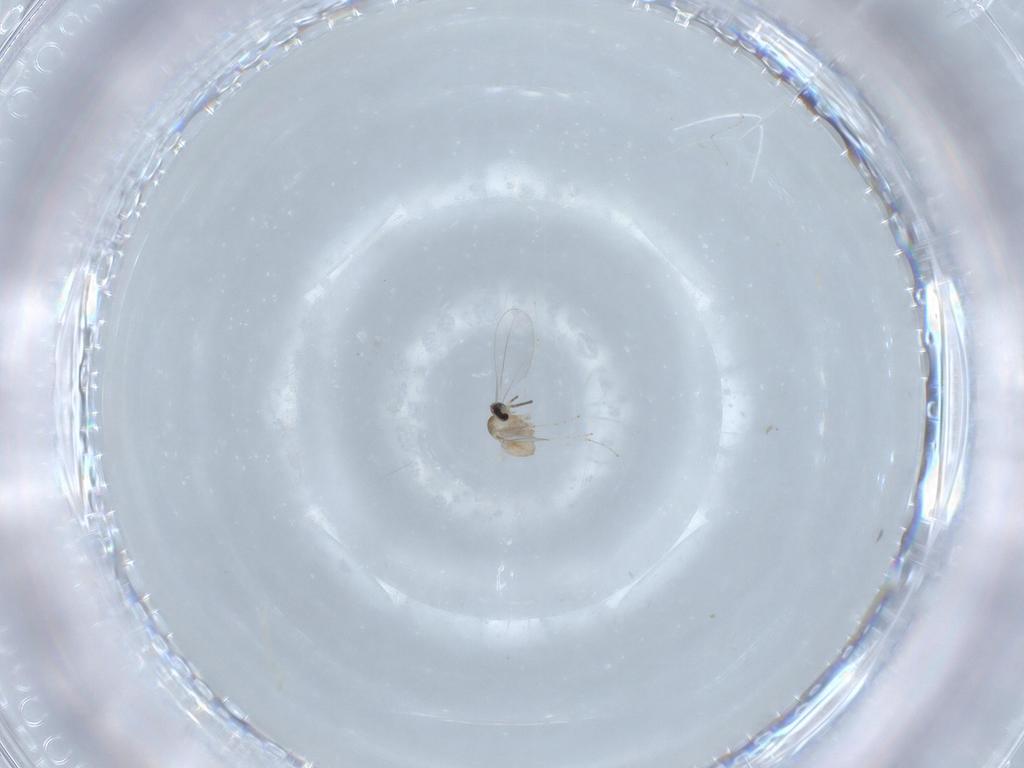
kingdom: Animalia
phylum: Arthropoda
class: Insecta
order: Diptera
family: Cecidomyiidae
